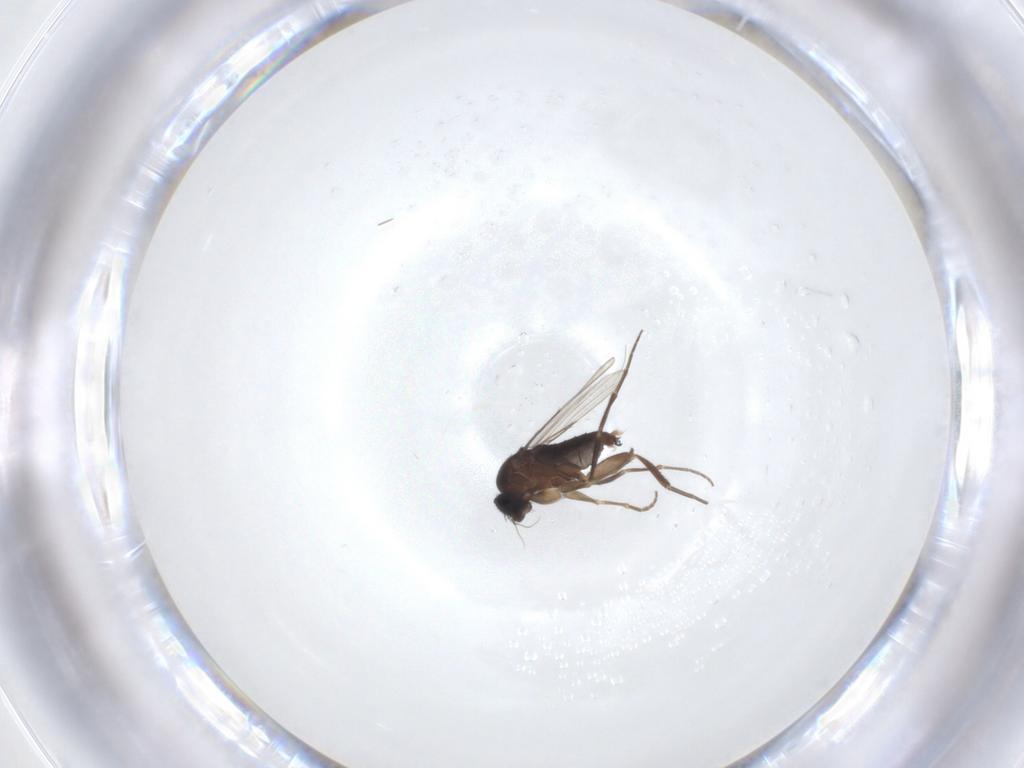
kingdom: Animalia
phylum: Arthropoda
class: Insecta
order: Diptera
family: Phoridae
